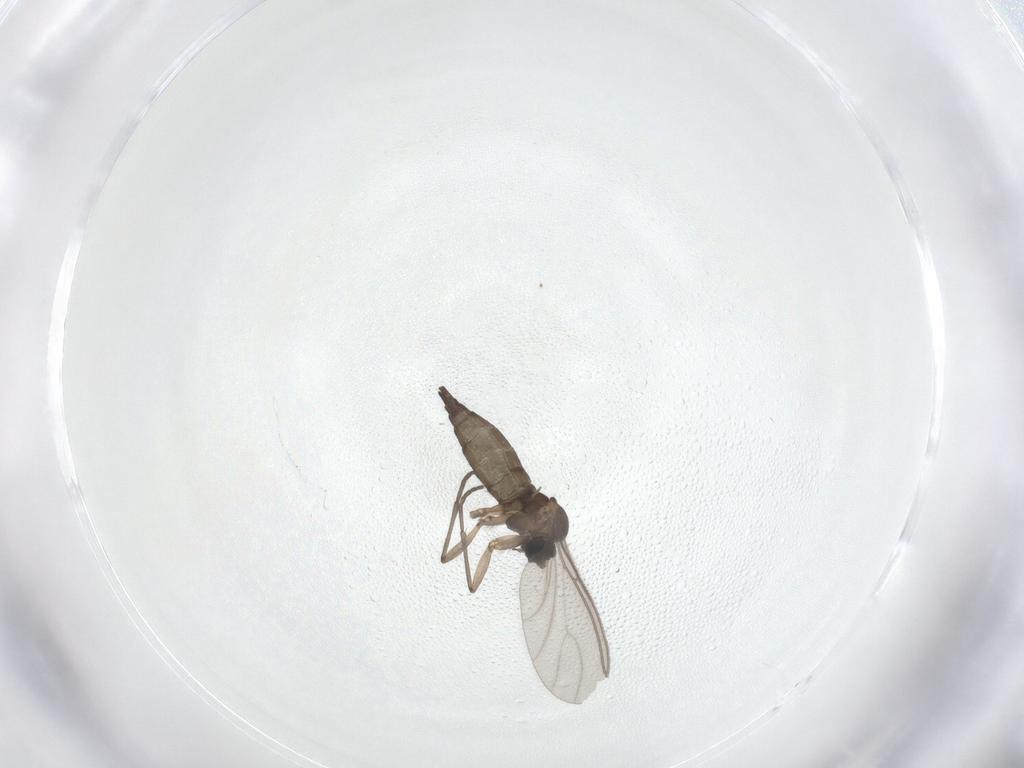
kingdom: Animalia
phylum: Arthropoda
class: Insecta
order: Diptera
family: Sciaridae
